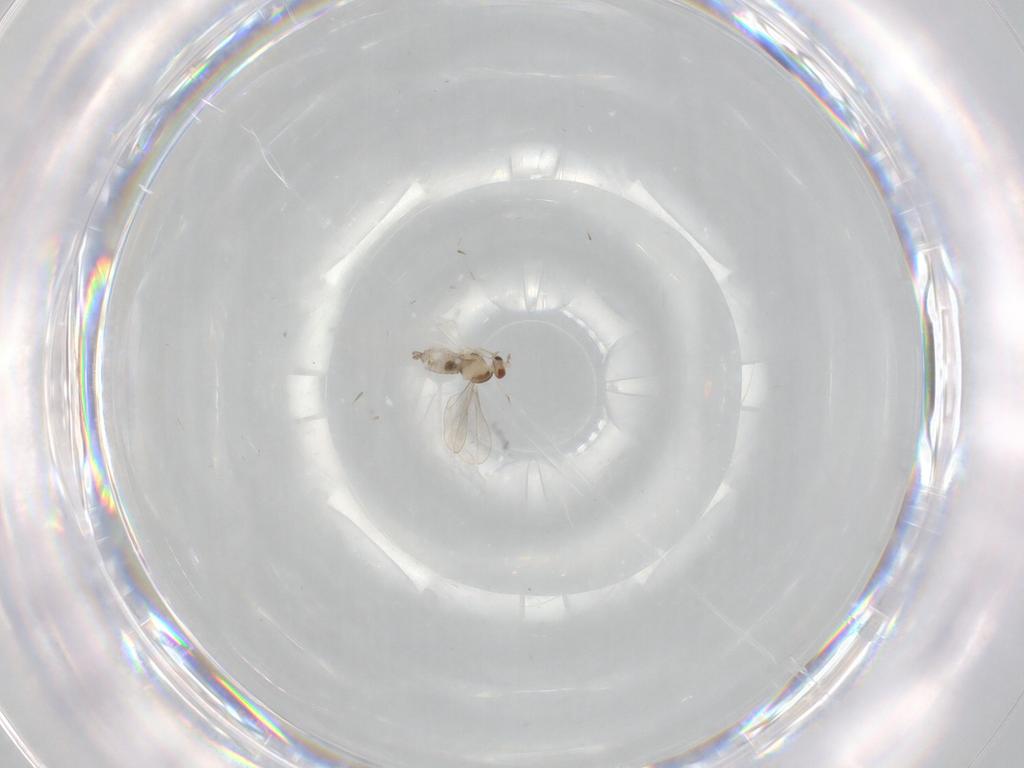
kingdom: Animalia
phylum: Arthropoda
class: Insecta
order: Diptera
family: Cecidomyiidae
